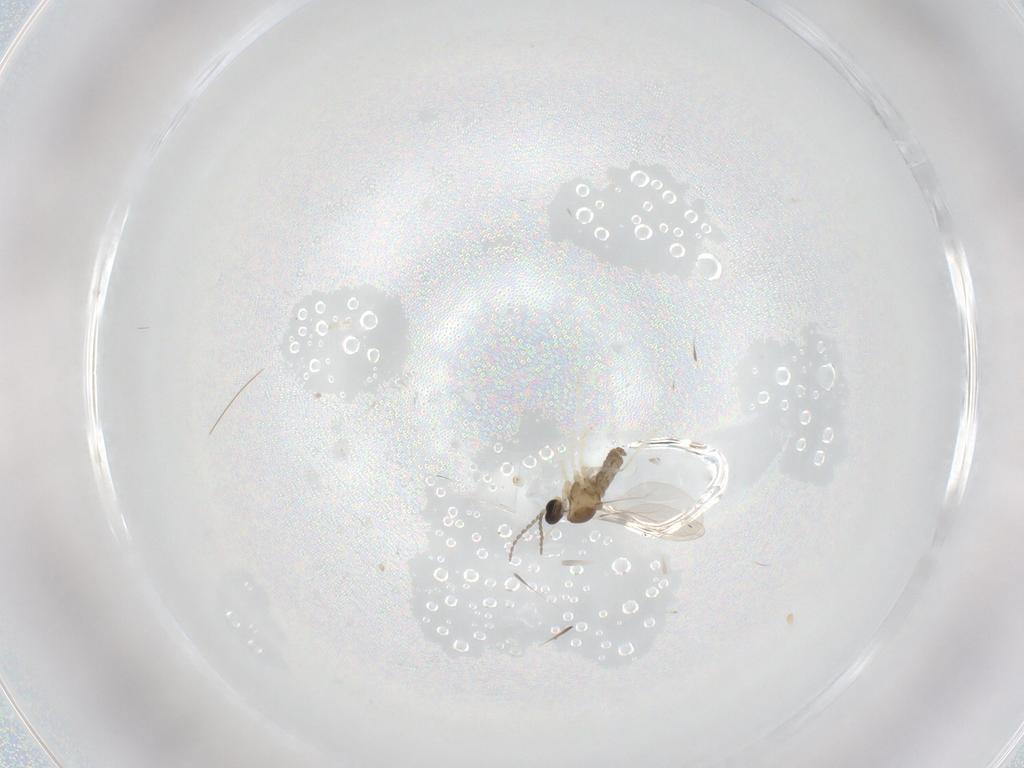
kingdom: Animalia
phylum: Arthropoda
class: Insecta
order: Diptera
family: Cecidomyiidae
